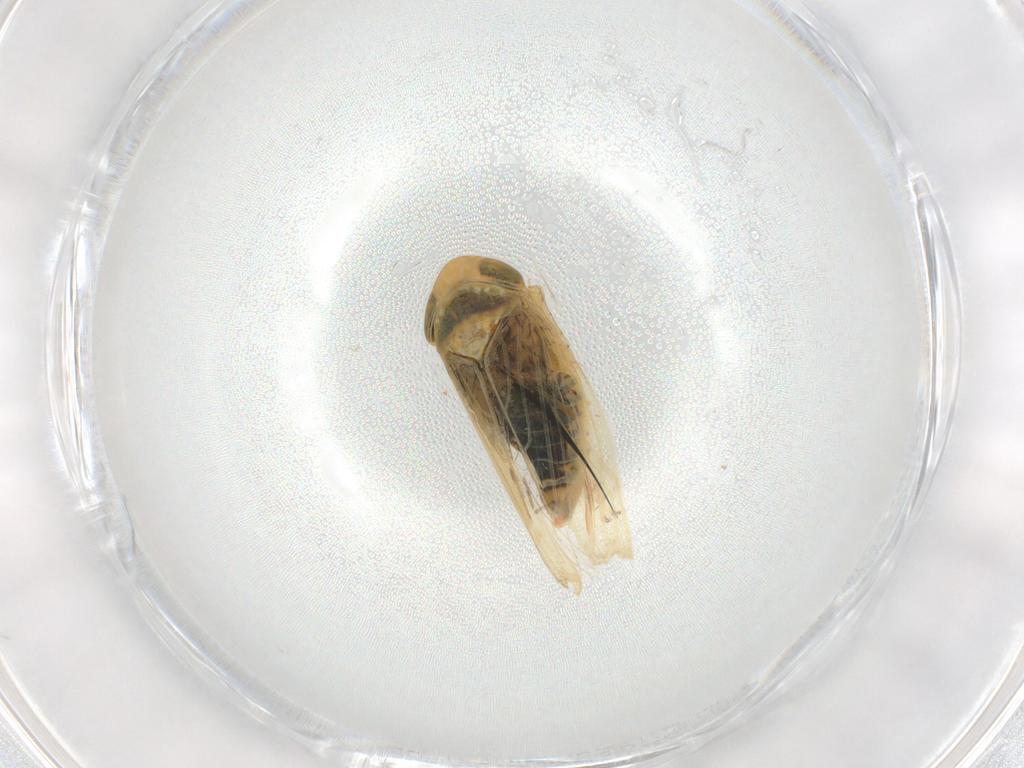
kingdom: Animalia
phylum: Arthropoda
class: Insecta
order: Hemiptera
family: Cicadellidae
